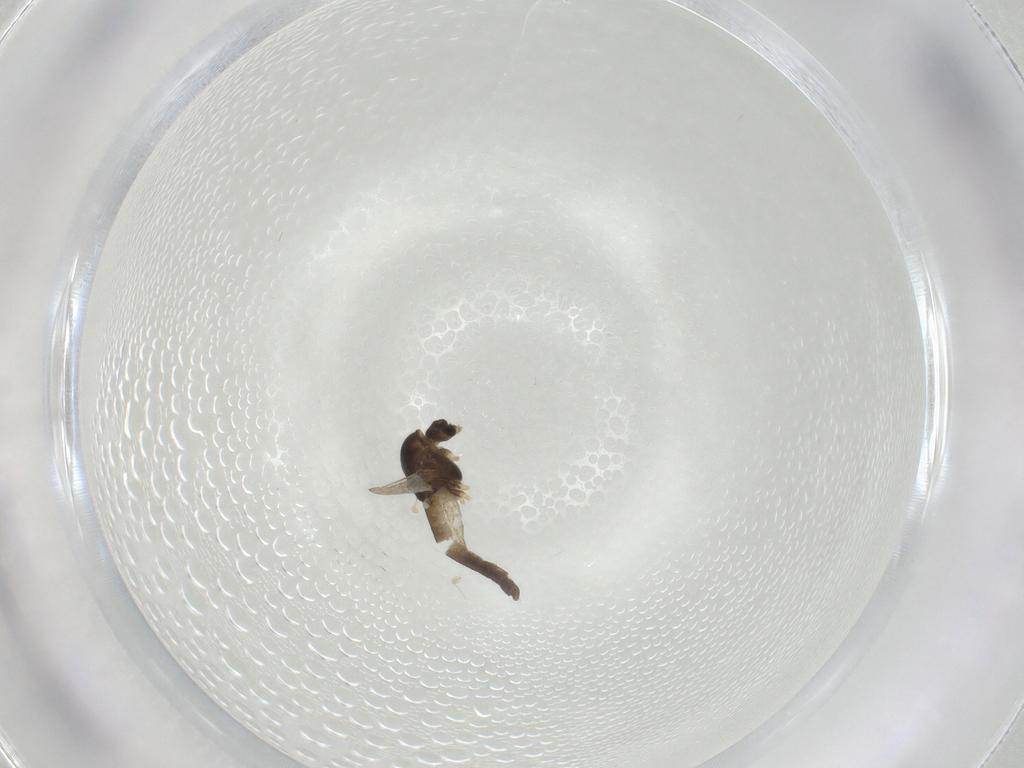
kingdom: Animalia
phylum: Arthropoda
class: Insecta
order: Diptera
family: Chironomidae
